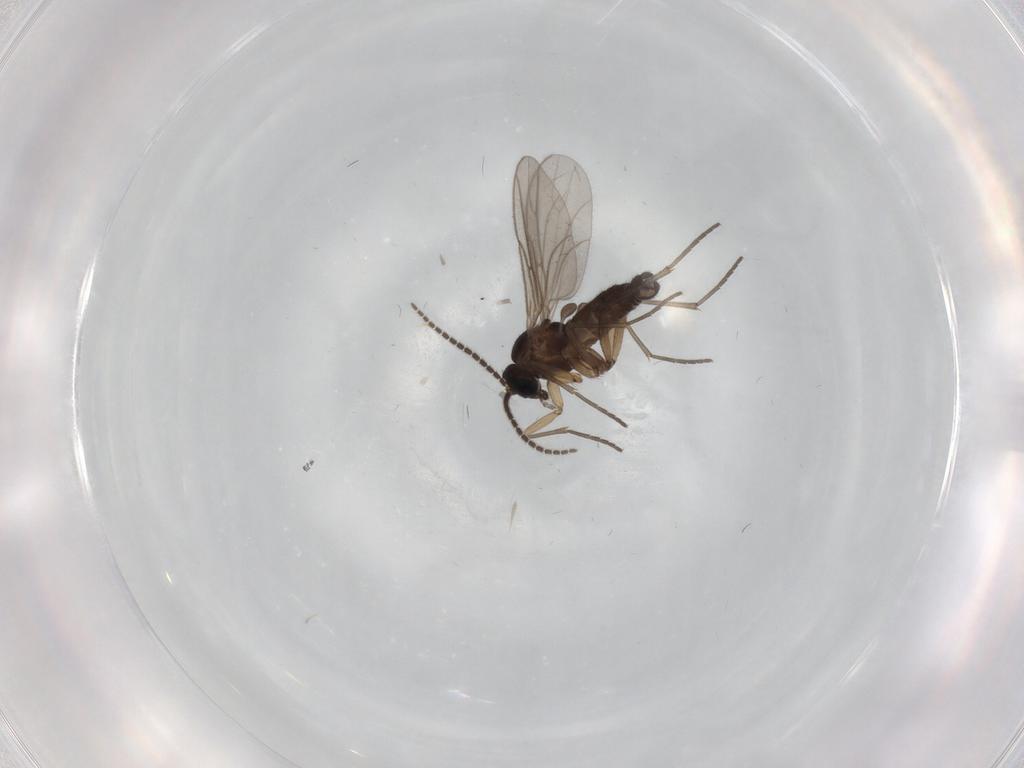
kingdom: Animalia
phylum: Arthropoda
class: Insecta
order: Diptera
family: Sciaridae
